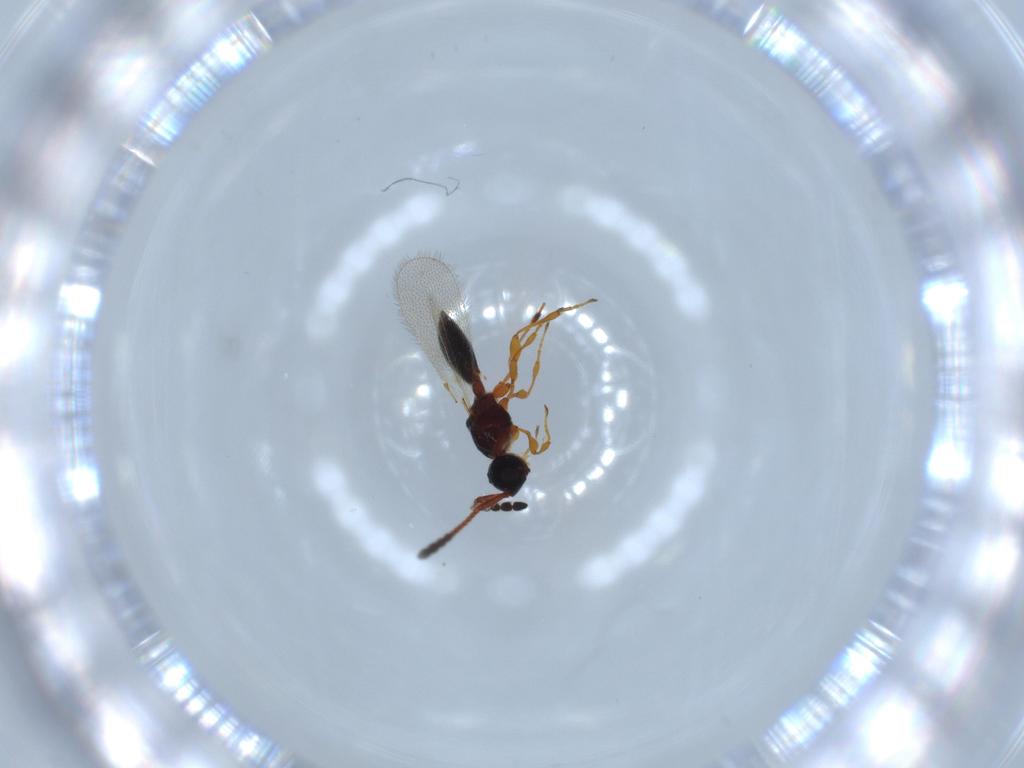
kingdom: Animalia
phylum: Arthropoda
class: Insecta
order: Hymenoptera
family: Diapriidae
